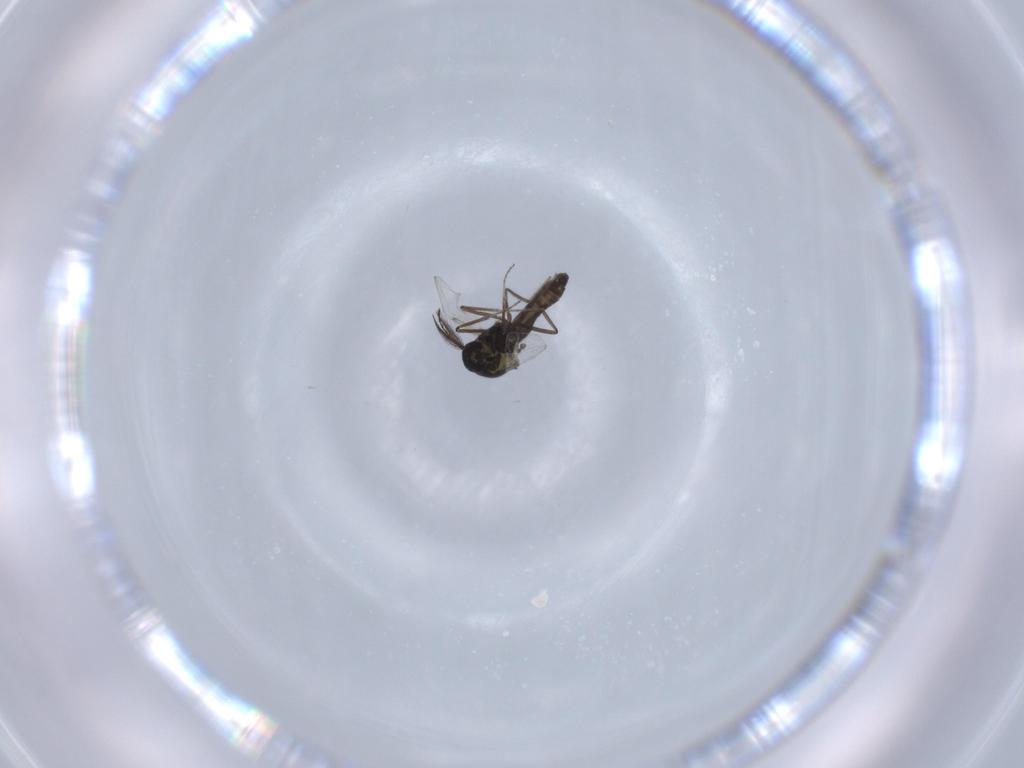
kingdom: Animalia
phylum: Arthropoda
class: Insecta
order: Diptera
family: Ceratopogonidae
